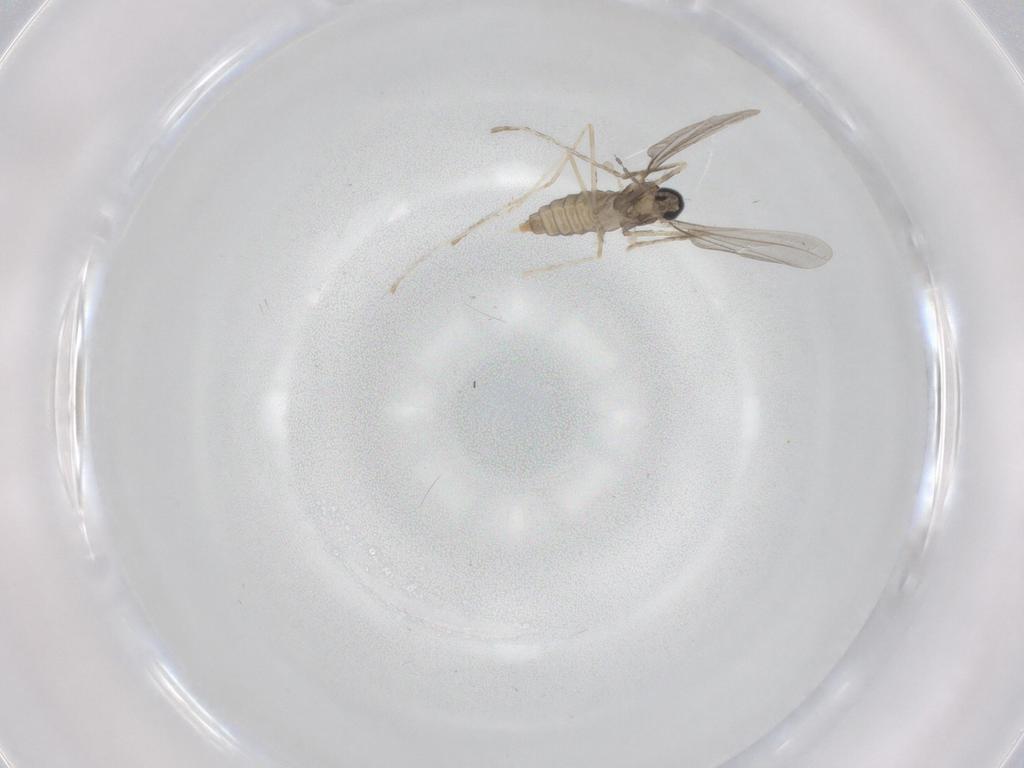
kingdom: Animalia
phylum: Arthropoda
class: Insecta
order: Diptera
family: Cecidomyiidae
